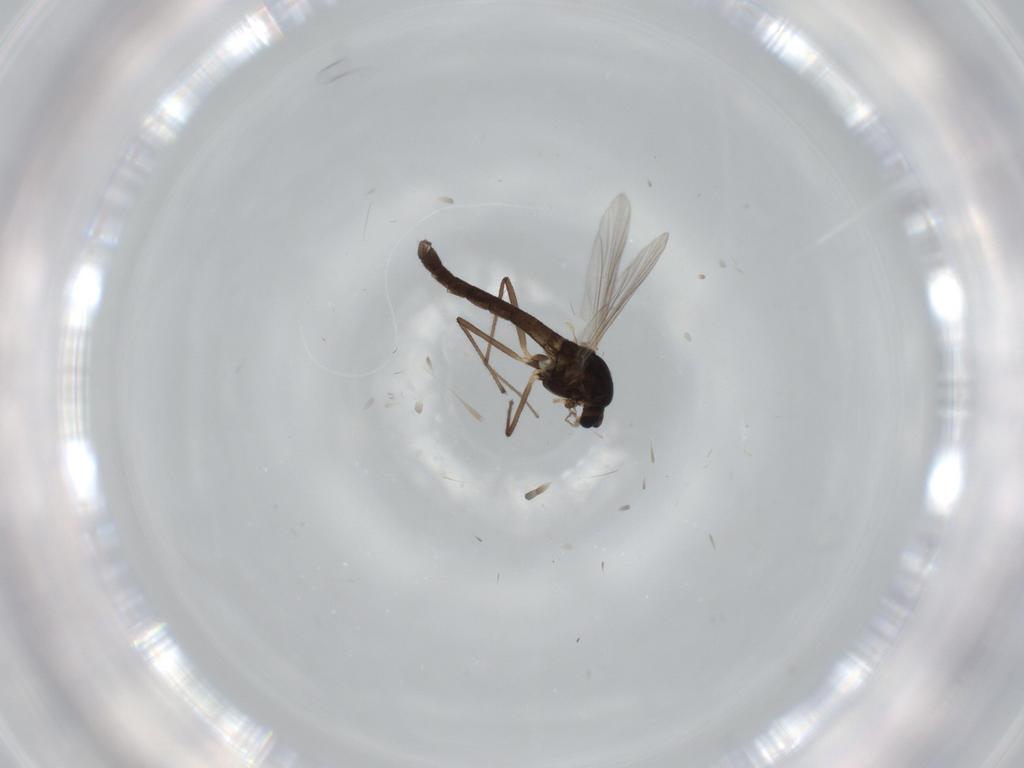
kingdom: Animalia
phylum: Arthropoda
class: Insecta
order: Diptera
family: Chironomidae
